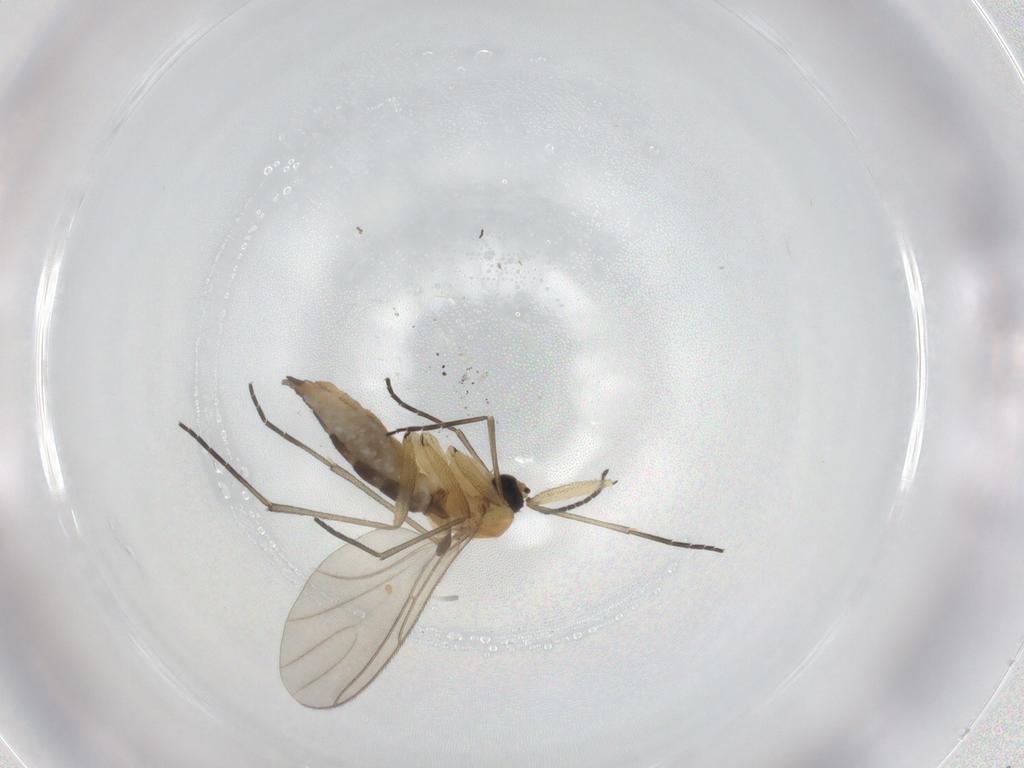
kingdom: Animalia
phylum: Arthropoda
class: Insecta
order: Diptera
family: Sciaridae
